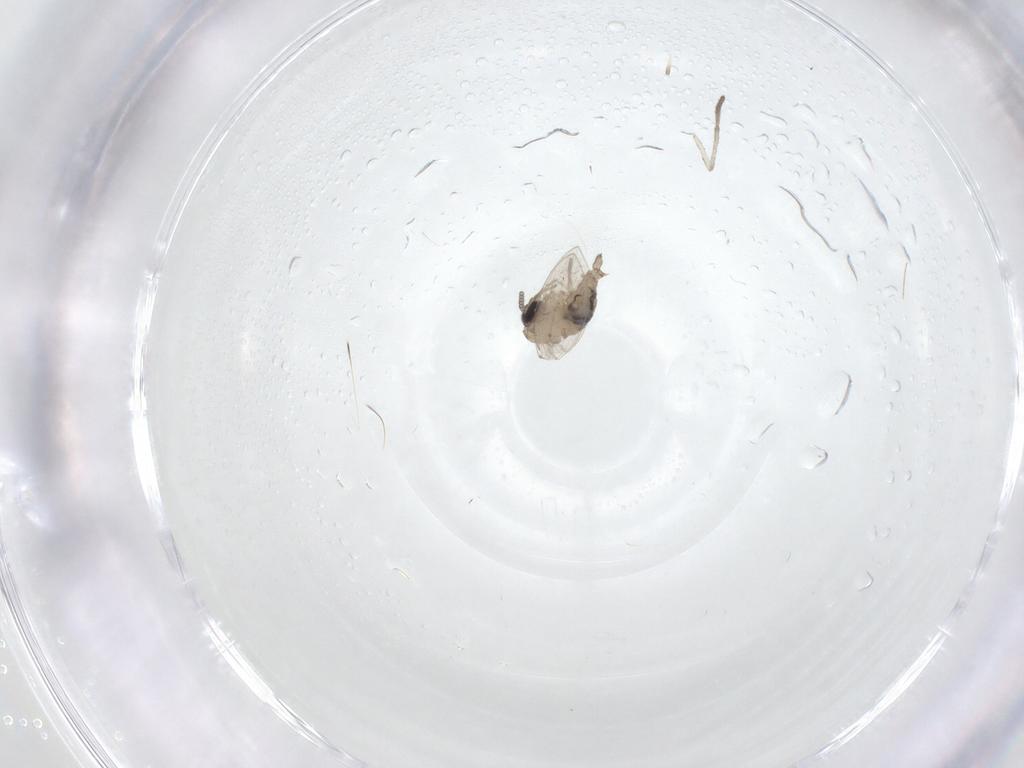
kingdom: Animalia
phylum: Arthropoda
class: Insecta
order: Diptera
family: Psychodidae
